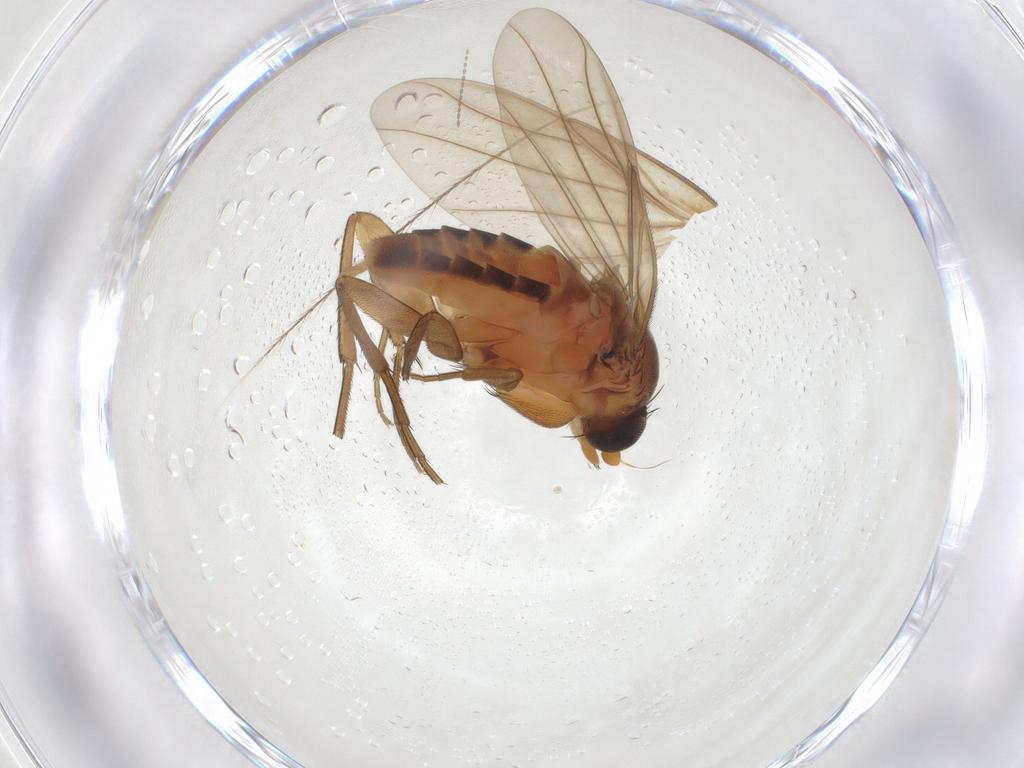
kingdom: Animalia
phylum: Arthropoda
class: Insecta
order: Diptera
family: Phoridae
